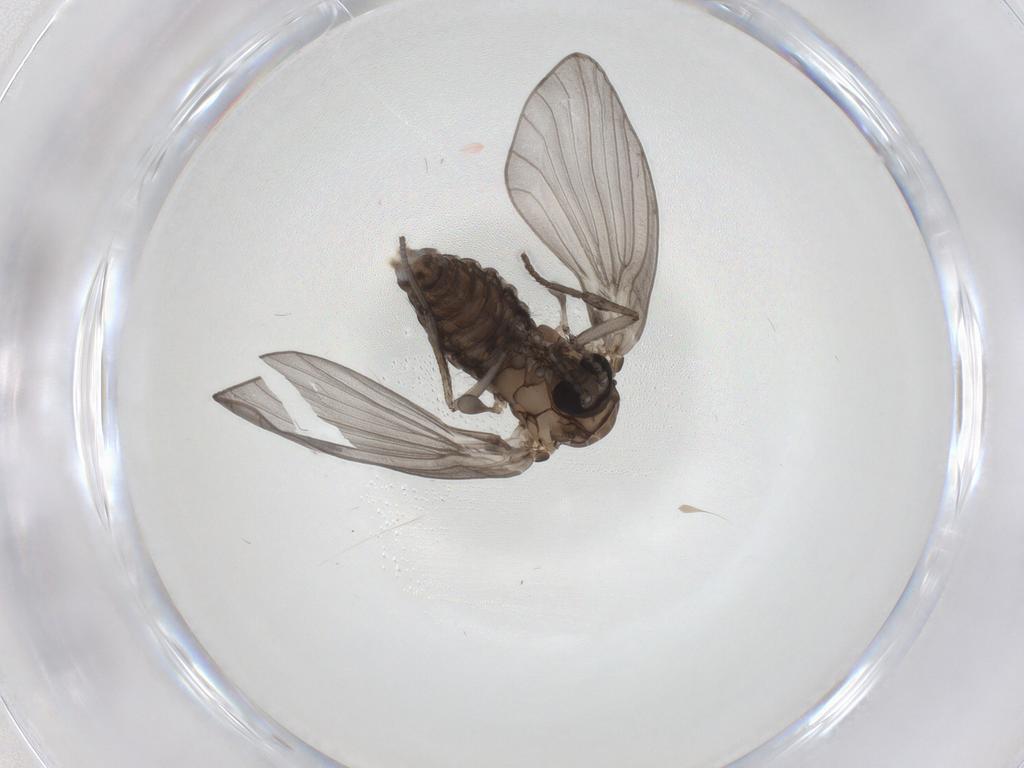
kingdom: Animalia
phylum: Arthropoda
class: Insecta
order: Diptera
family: Psychodidae
